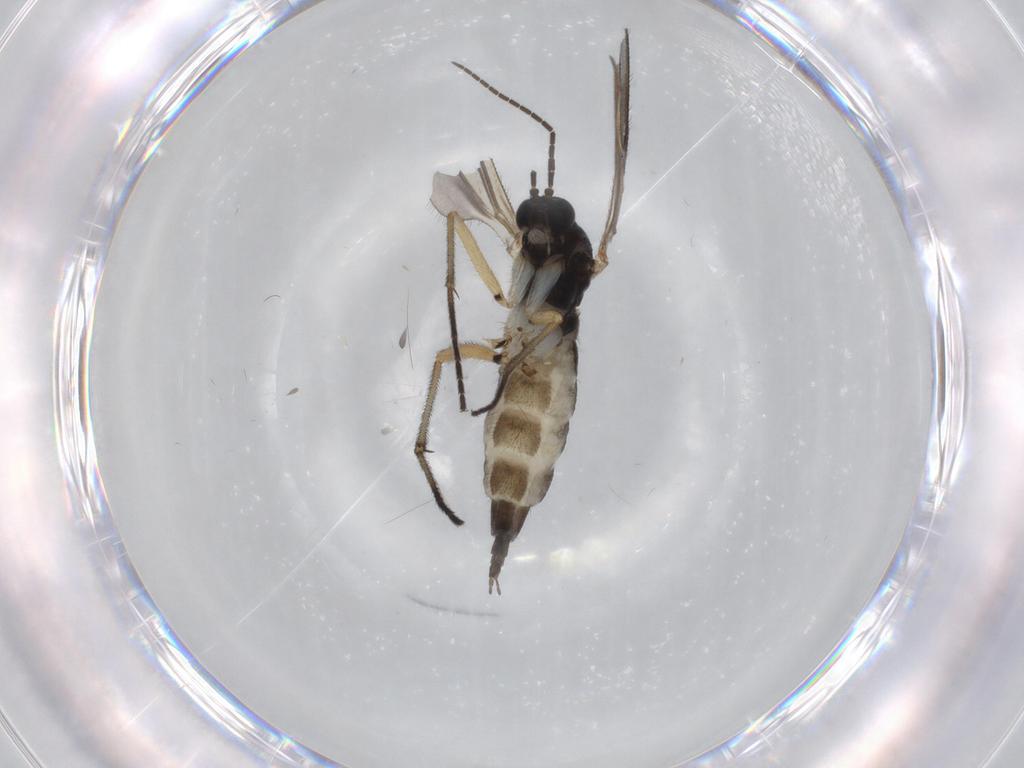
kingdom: Animalia
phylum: Arthropoda
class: Insecta
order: Diptera
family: Sciaridae
